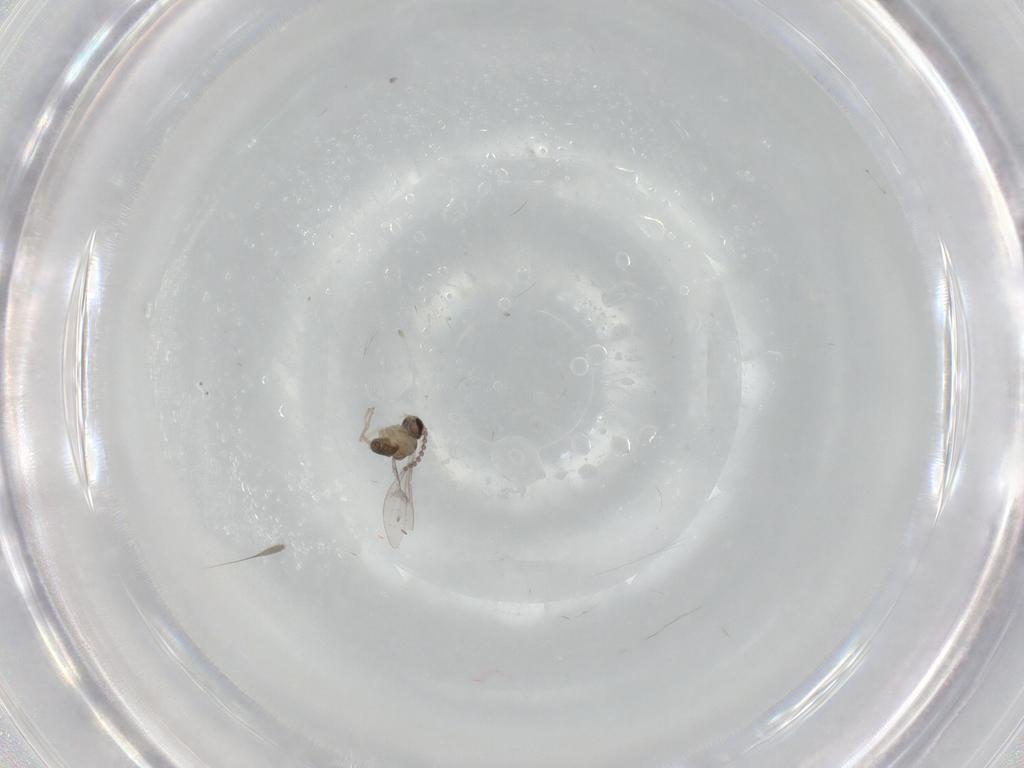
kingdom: Animalia
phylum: Arthropoda
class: Insecta
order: Diptera
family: Cecidomyiidae
